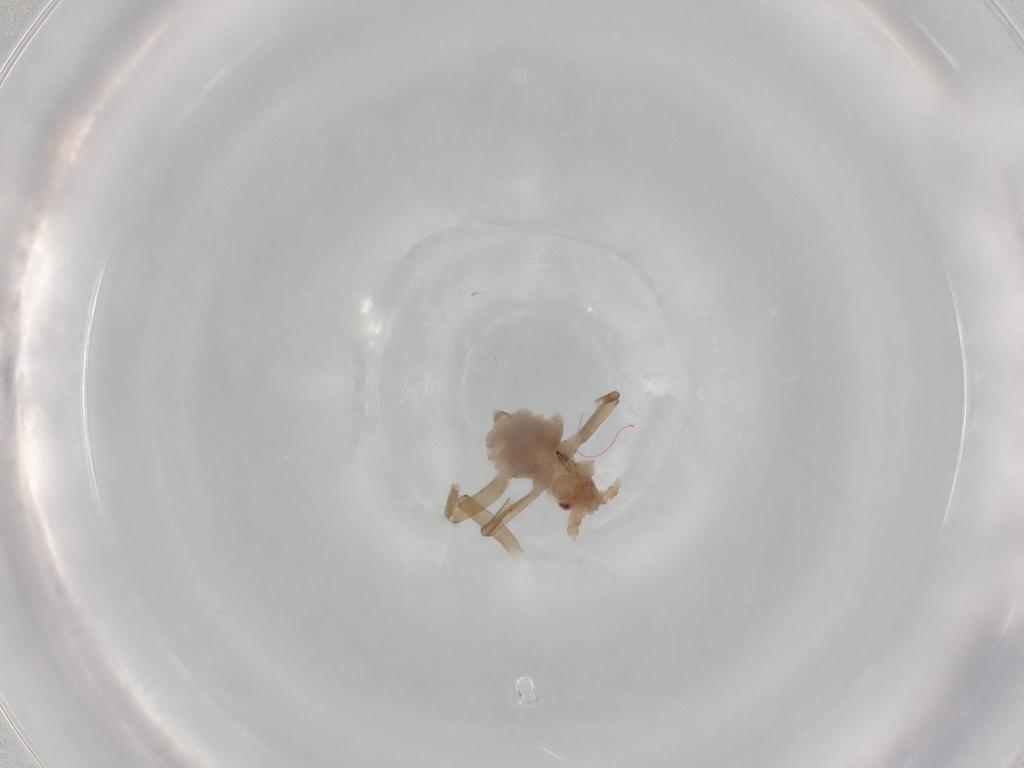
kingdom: Animalia
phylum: Arthropoda
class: Insecta
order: Hemiptera
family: Aphididae
